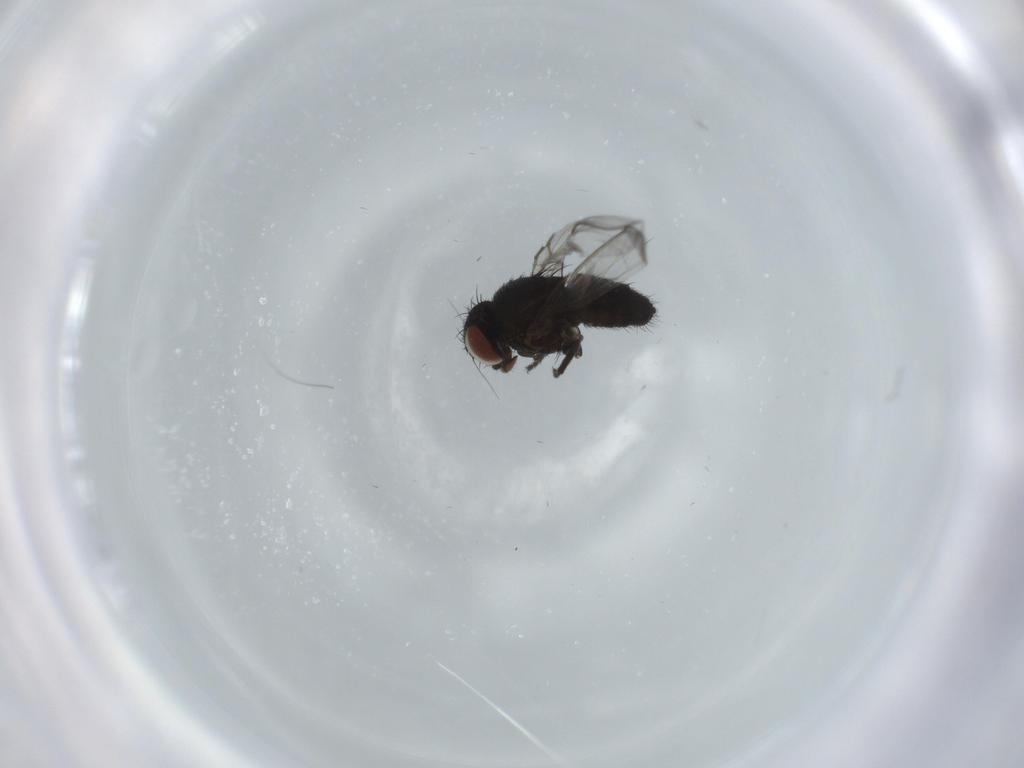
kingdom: Animalia
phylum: Arthropoda
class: Insecta
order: Diptera
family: Milichiidae
